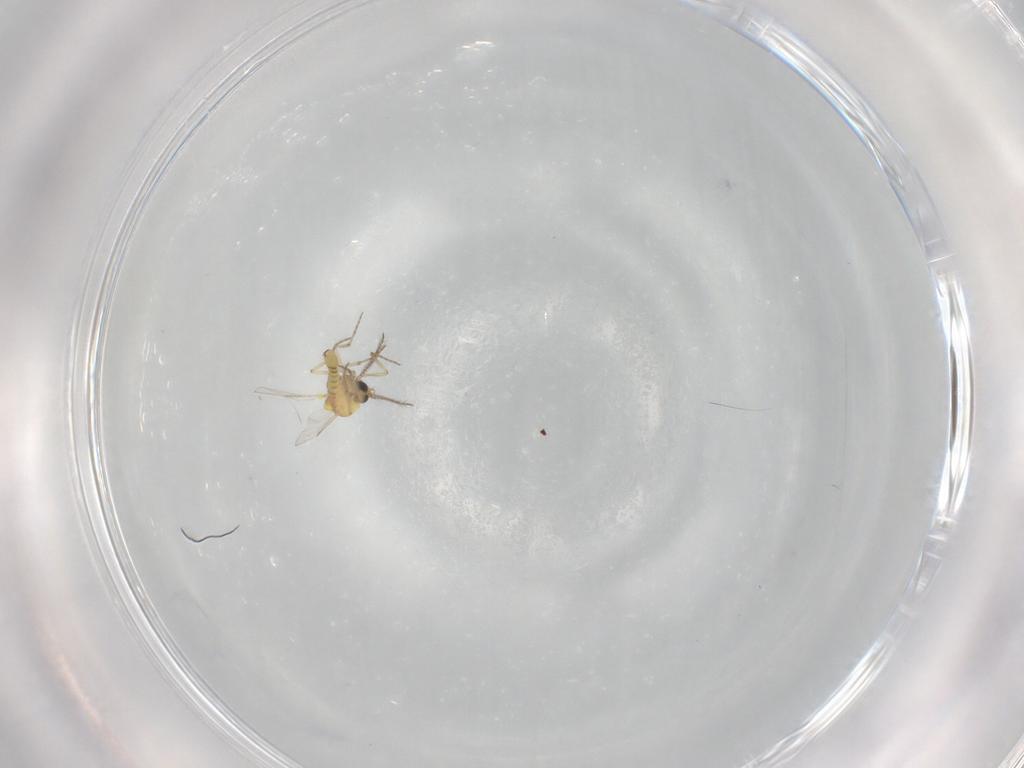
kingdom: Animalia
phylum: Arthropoda
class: Insecta
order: Diptera
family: Ceratopogonidae
